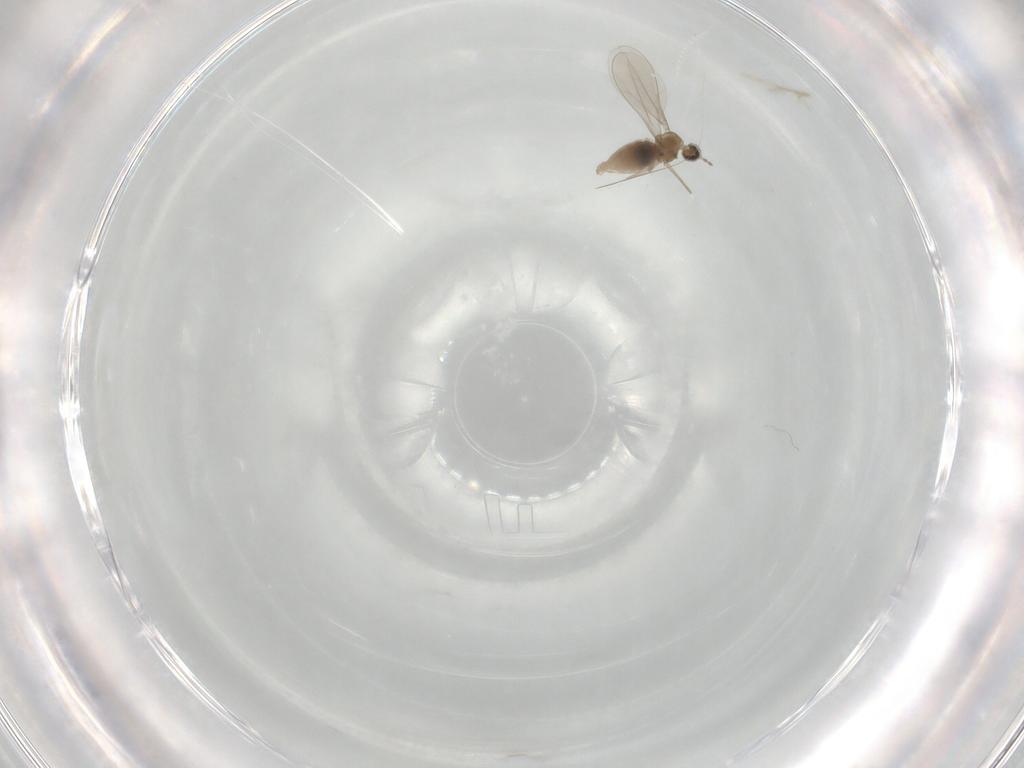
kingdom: Animalia
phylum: Arthropoda
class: Insecta
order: Diptera
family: Cecidomyiidae
